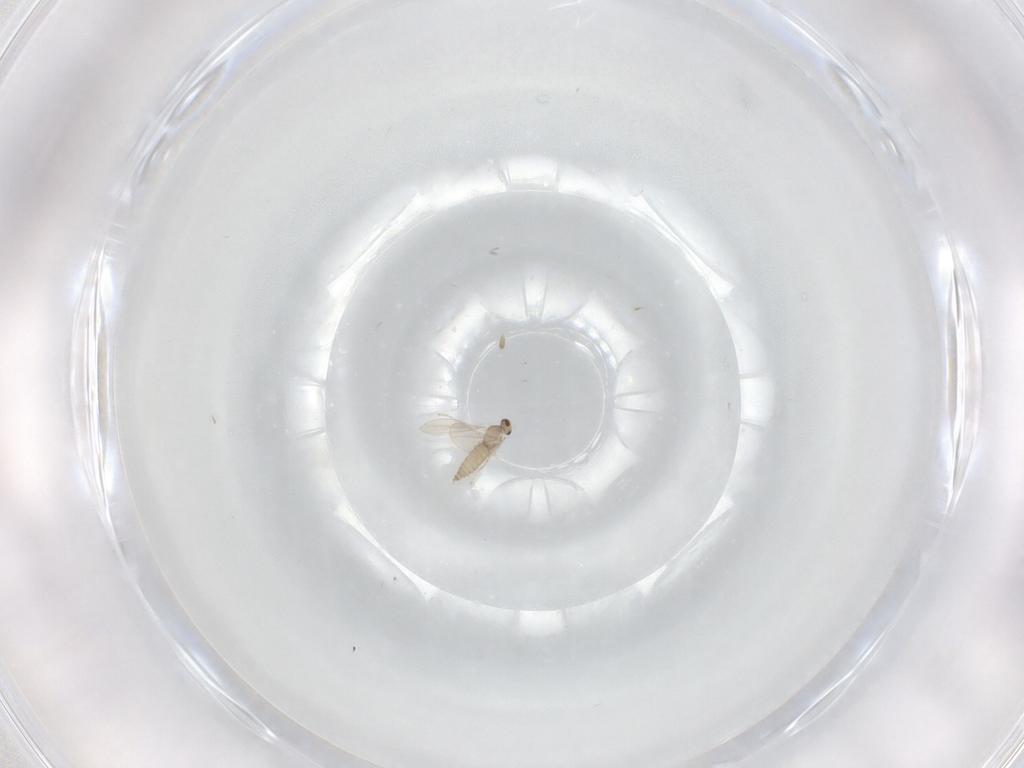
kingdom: Animalia
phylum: Arthropoda
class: Insecta
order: Diptera
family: Cecidomyiidae
